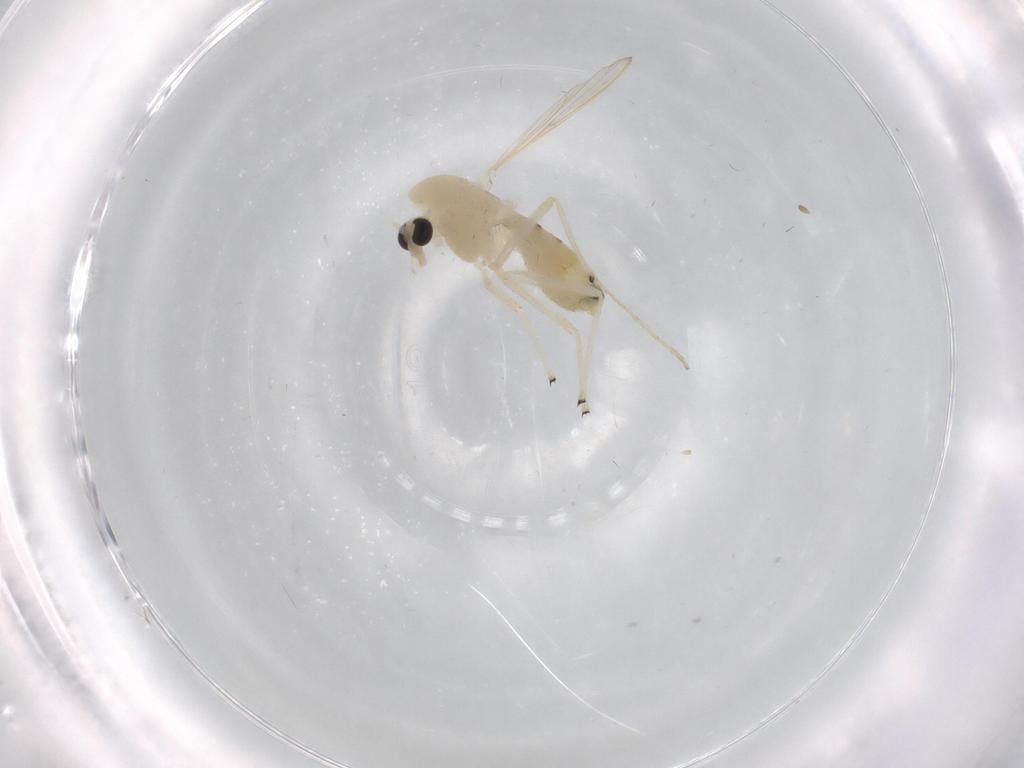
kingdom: Animalia
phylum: Arthropoda
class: Insecta
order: Diptera
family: Chironomidae
